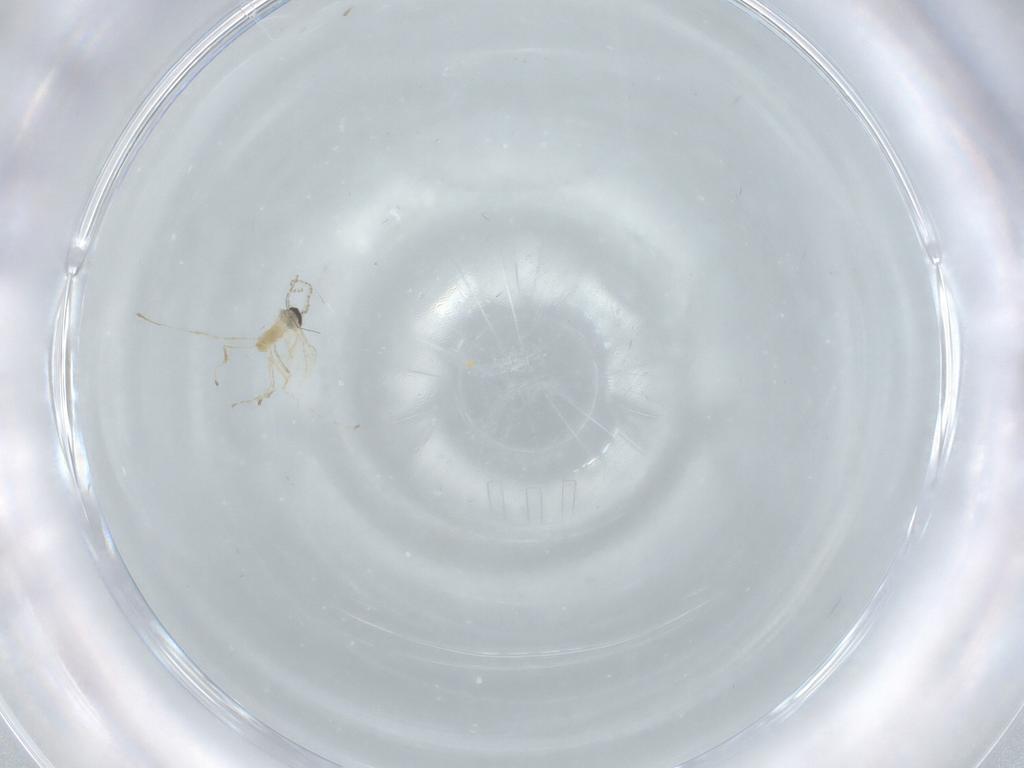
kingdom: Animalia
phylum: Arthropoda
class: Insecta
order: Diptera
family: Cecidomyiidae
